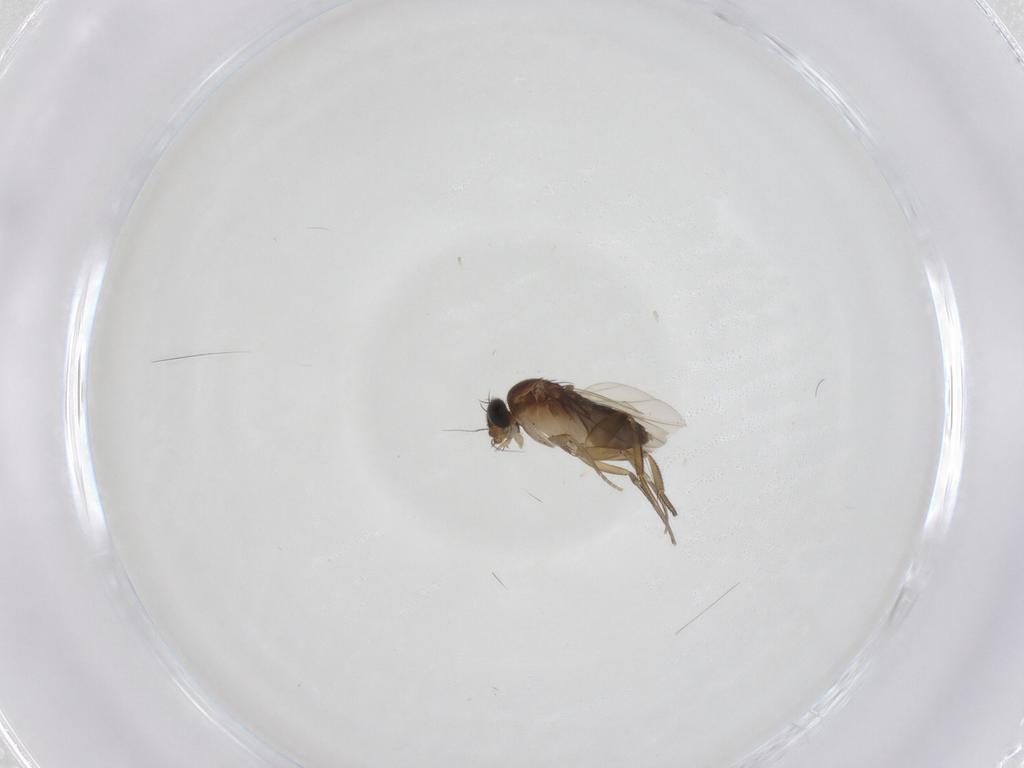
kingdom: Animalia
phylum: Arthropoda
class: Insecta
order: Diptera
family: Phoridae
